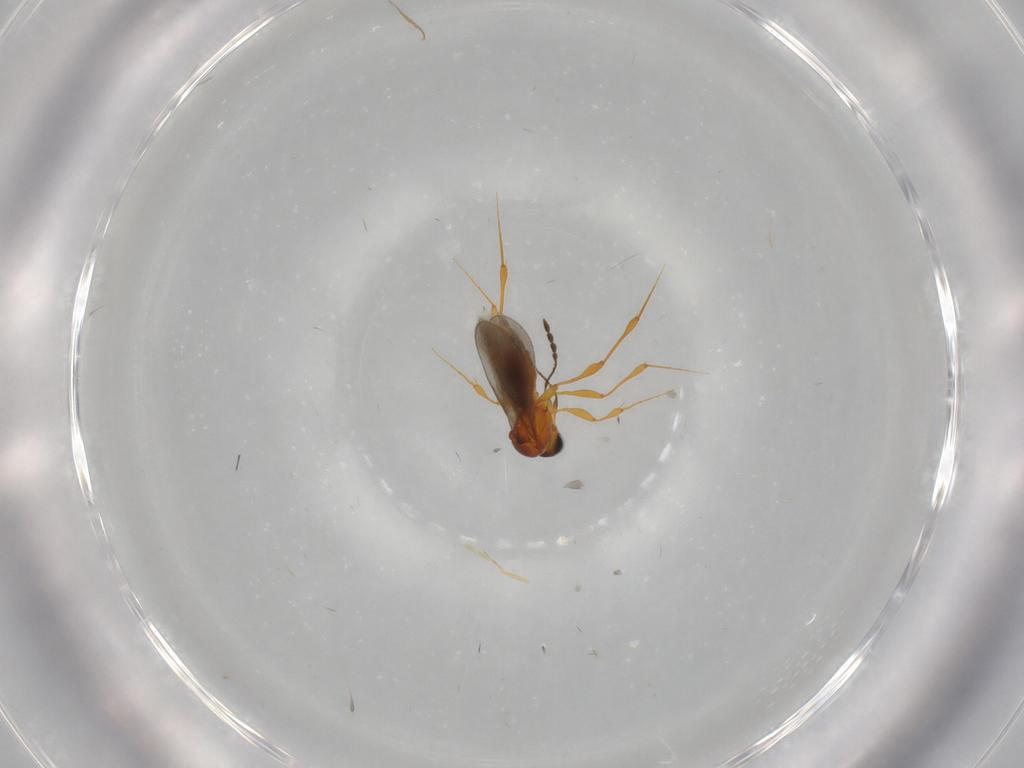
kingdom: Animalia
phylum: Arthropoda
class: Insecta
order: Hymenoptera
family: Platygastridae
